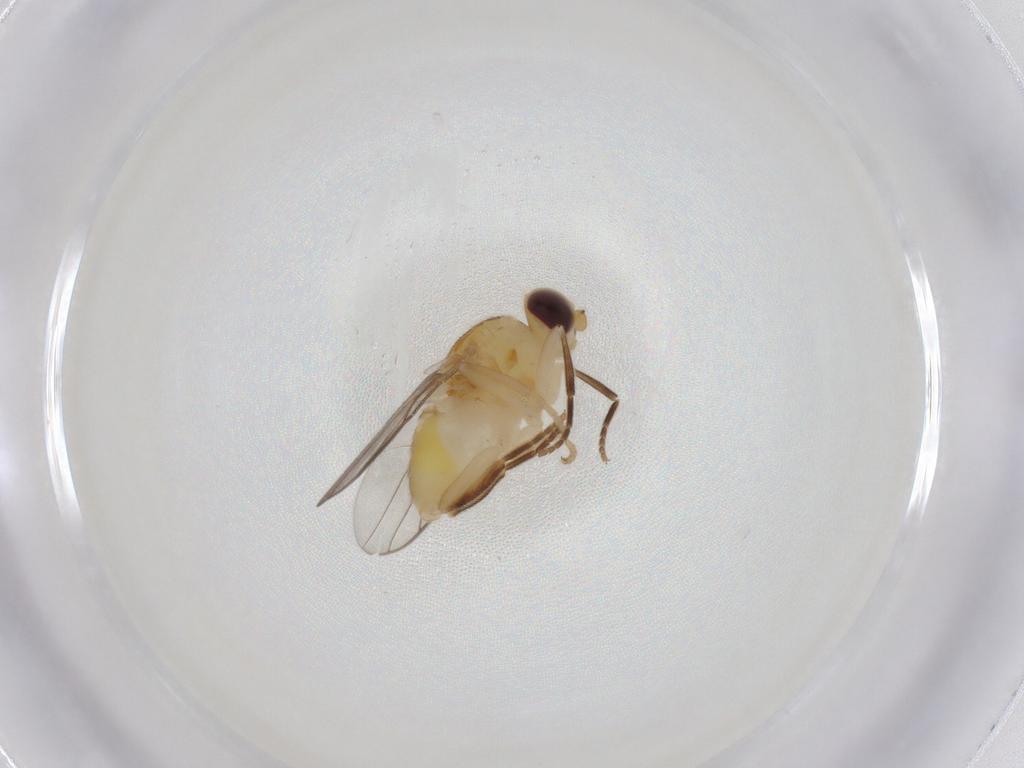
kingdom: Animalia
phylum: Arthropoda
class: Insecta
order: Diptera
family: Chloropidae
